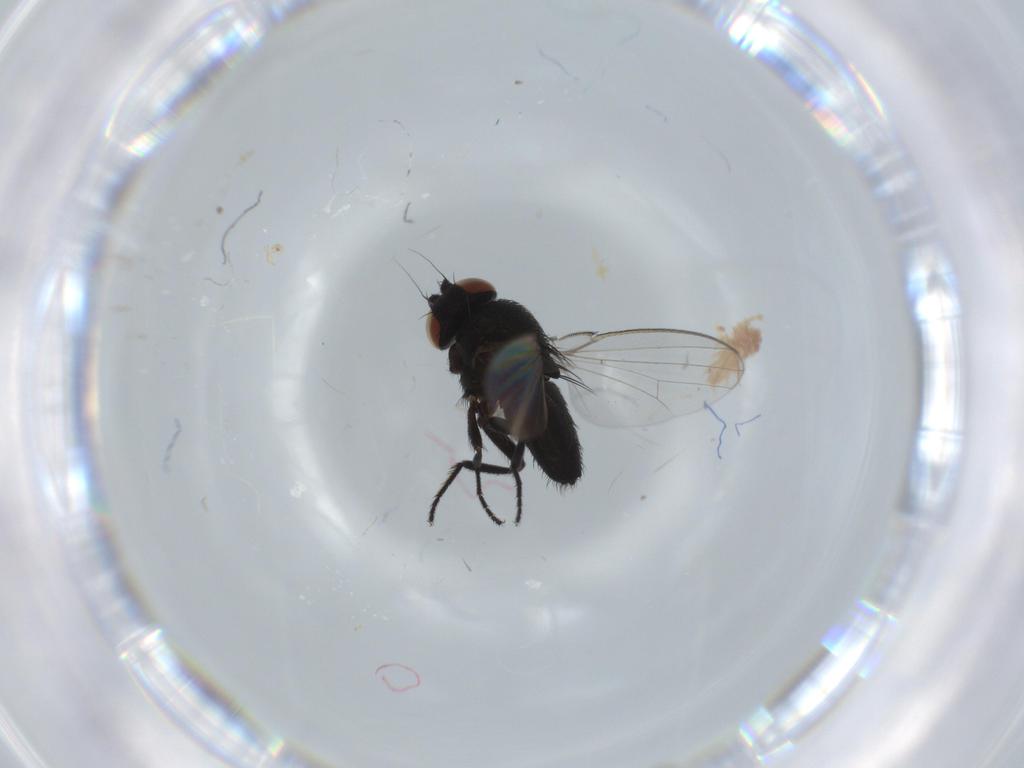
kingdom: Animalia
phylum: Arthropoda
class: Insecta
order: Diptera
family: Milichiidae
